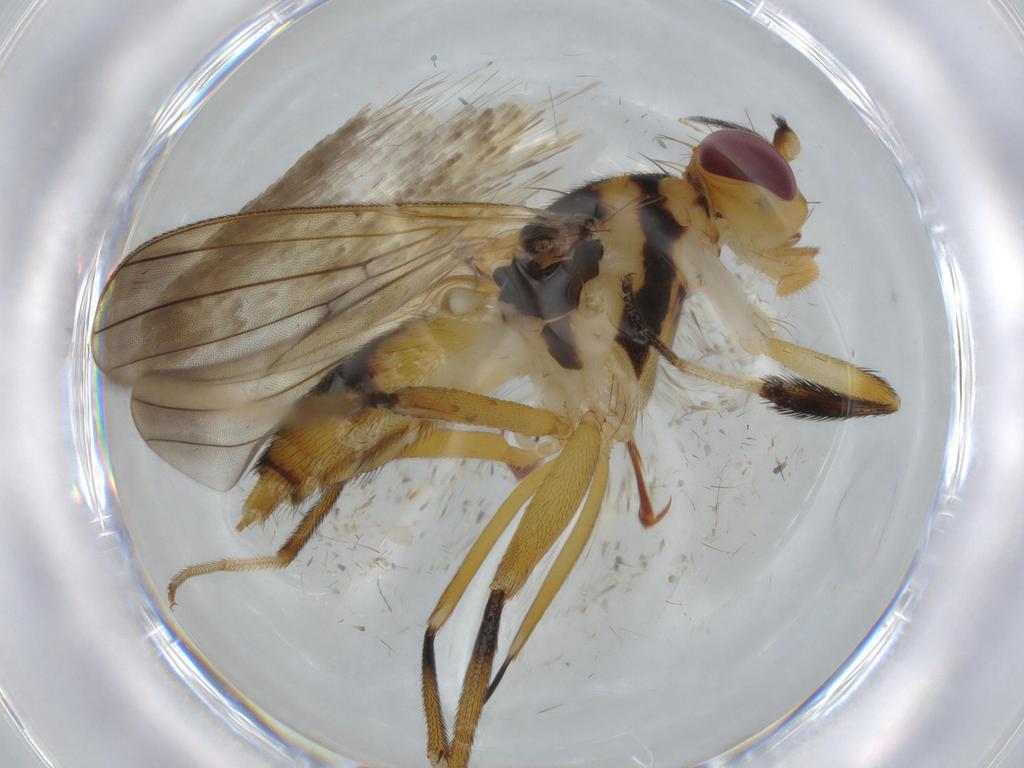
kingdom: Animalia
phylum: Arthropoda
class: Insecta
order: Diptera
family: Clusiidae
